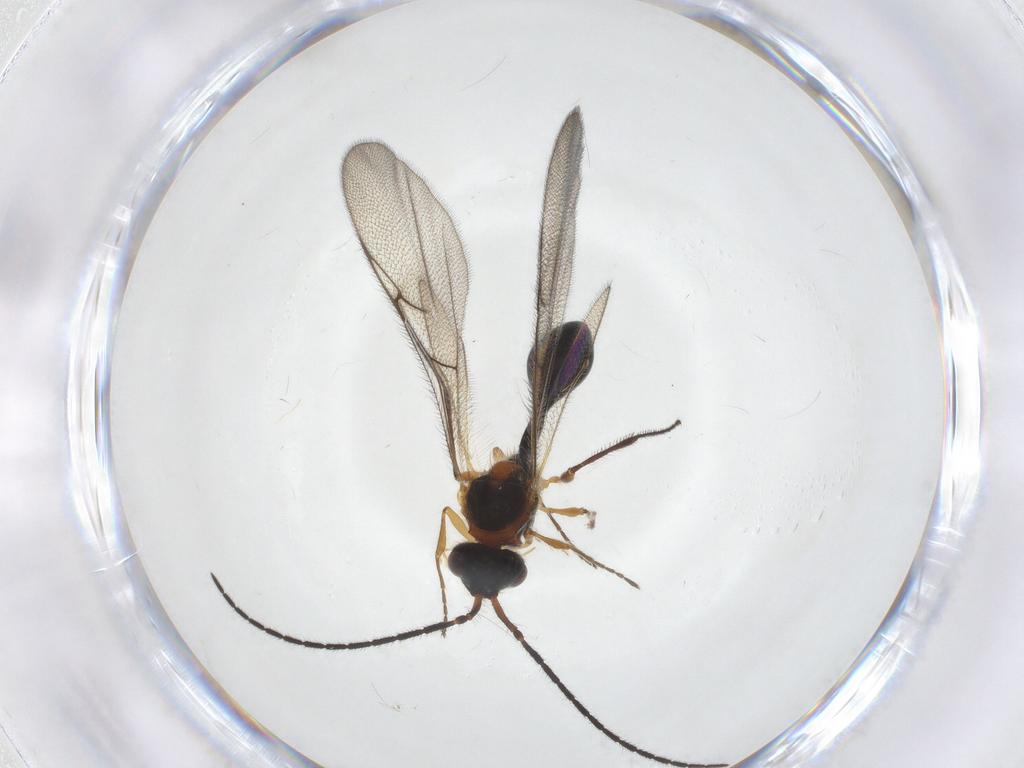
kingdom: Animalia
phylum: Arthropoda
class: Insecta
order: Hymenoptera
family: Diapriidae
